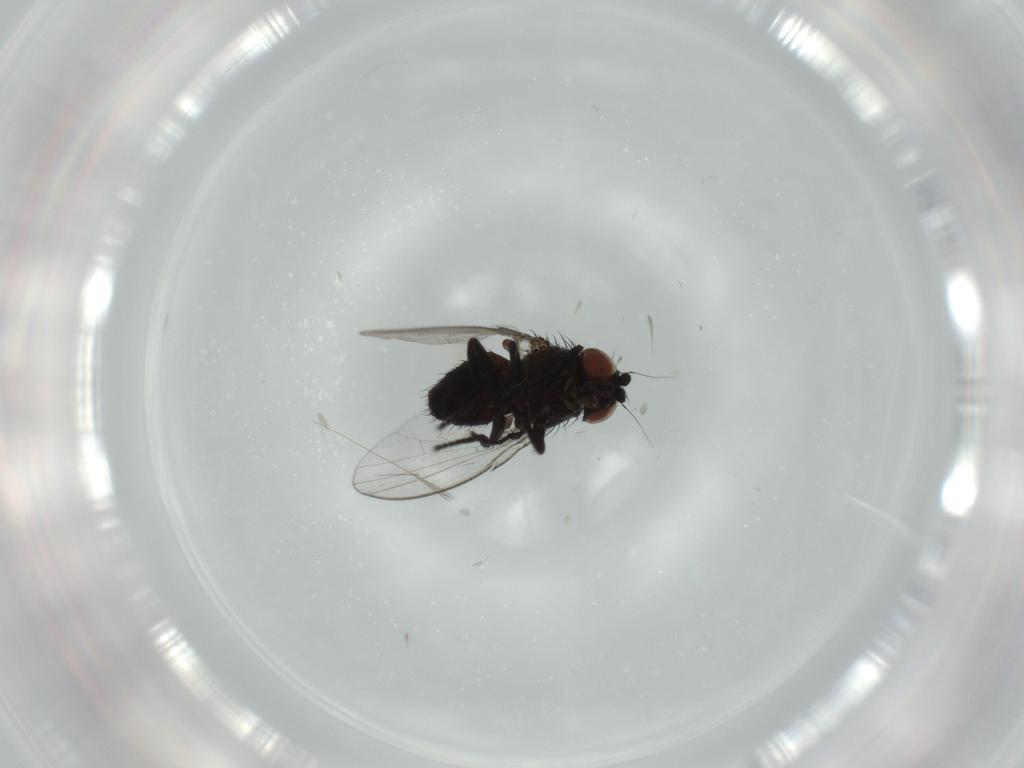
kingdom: Animalia
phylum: Arthropoda
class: Insecta
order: Diptera
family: Milichiidae
